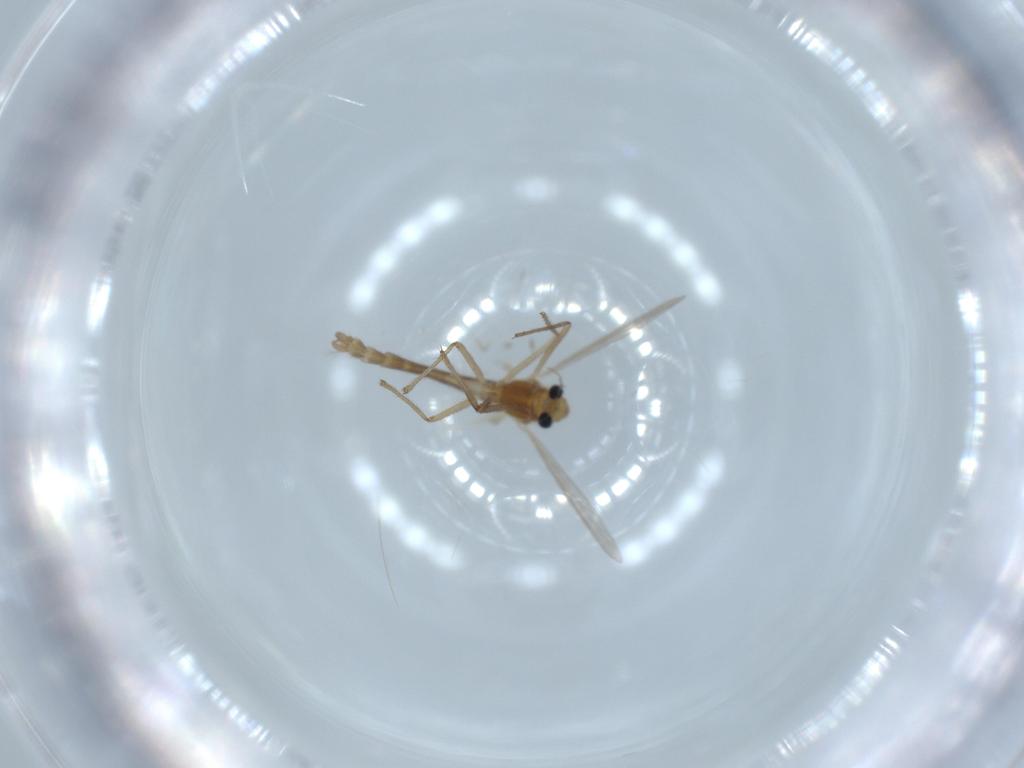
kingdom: Animalia
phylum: Arthropoda
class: Insecta
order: Diptera
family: Chironomidae
